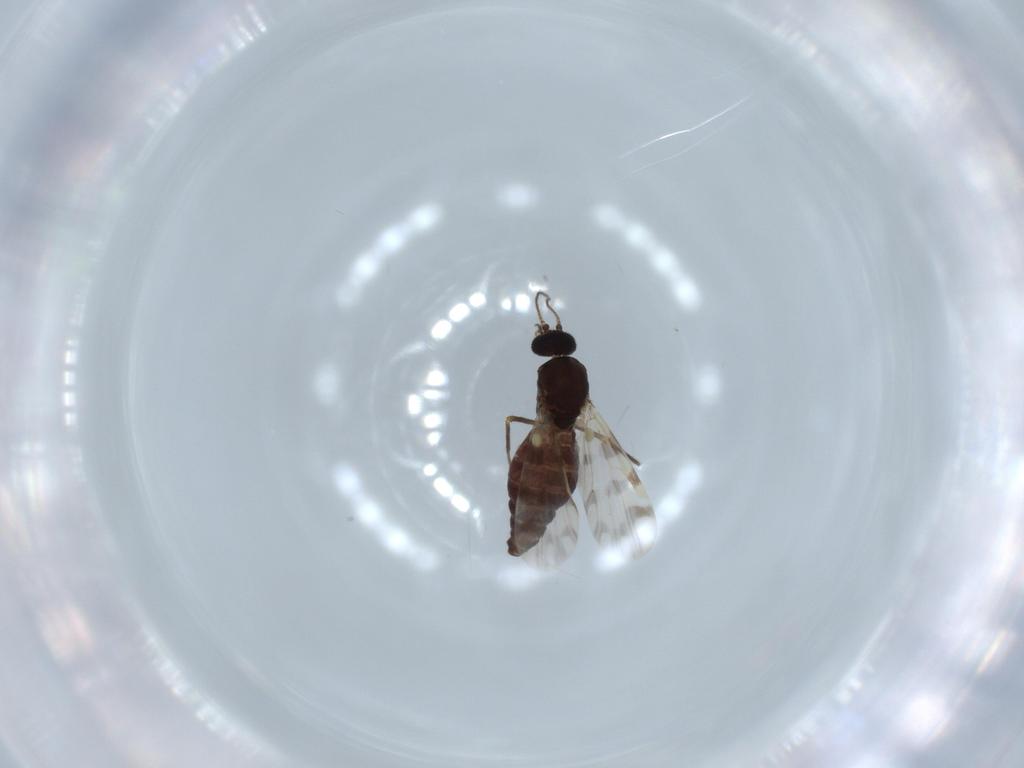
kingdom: Animalia
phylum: Arthropoda
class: Insecta
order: Diptera
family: Ceratopogonidae
